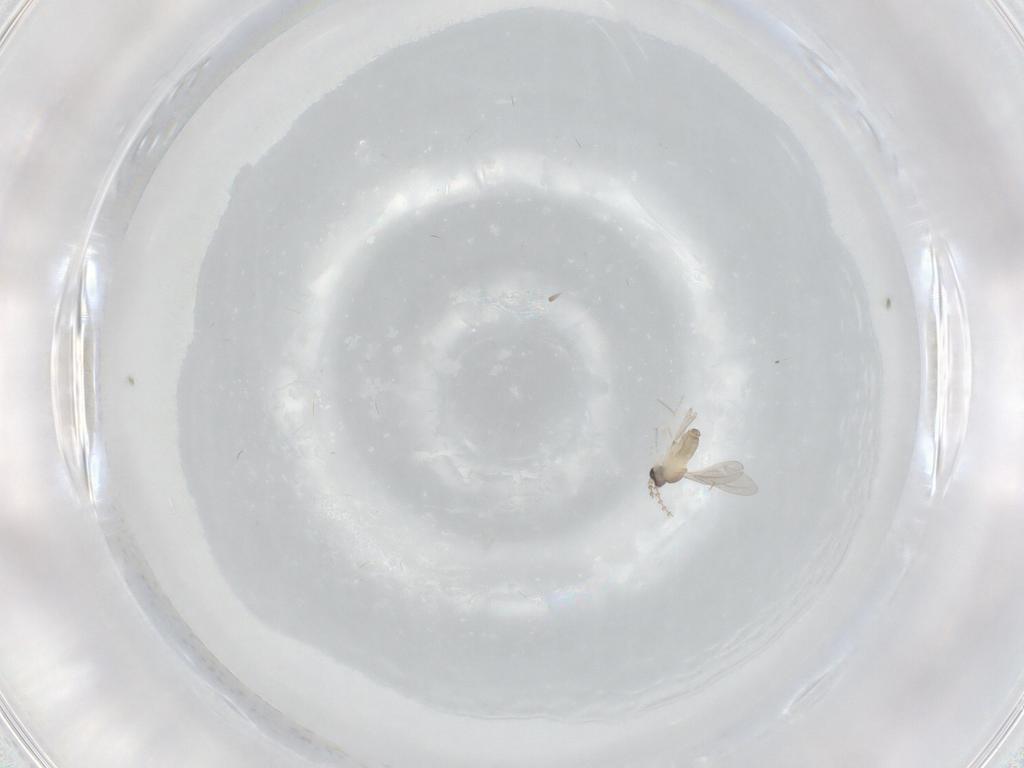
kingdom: Animalia
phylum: Arthropoda
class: Insecta
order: Diptera
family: Cecidomyiidae
